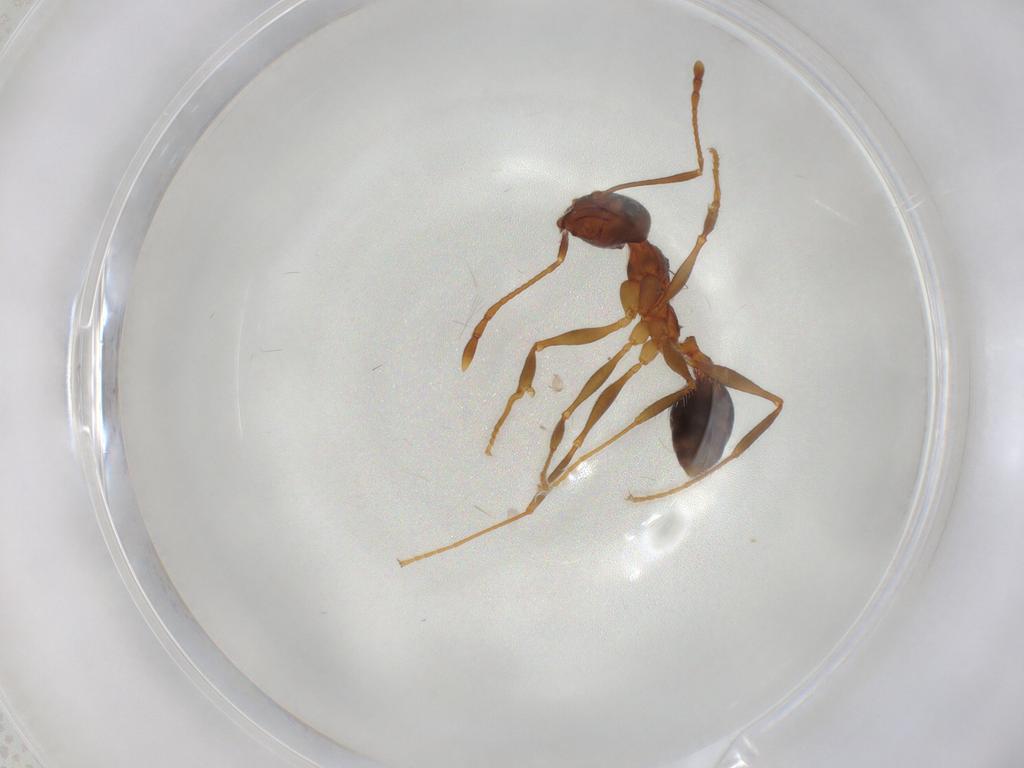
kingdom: Animalia
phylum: Arthropoda
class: Insecta
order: Hymenoptera
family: Formicidae
